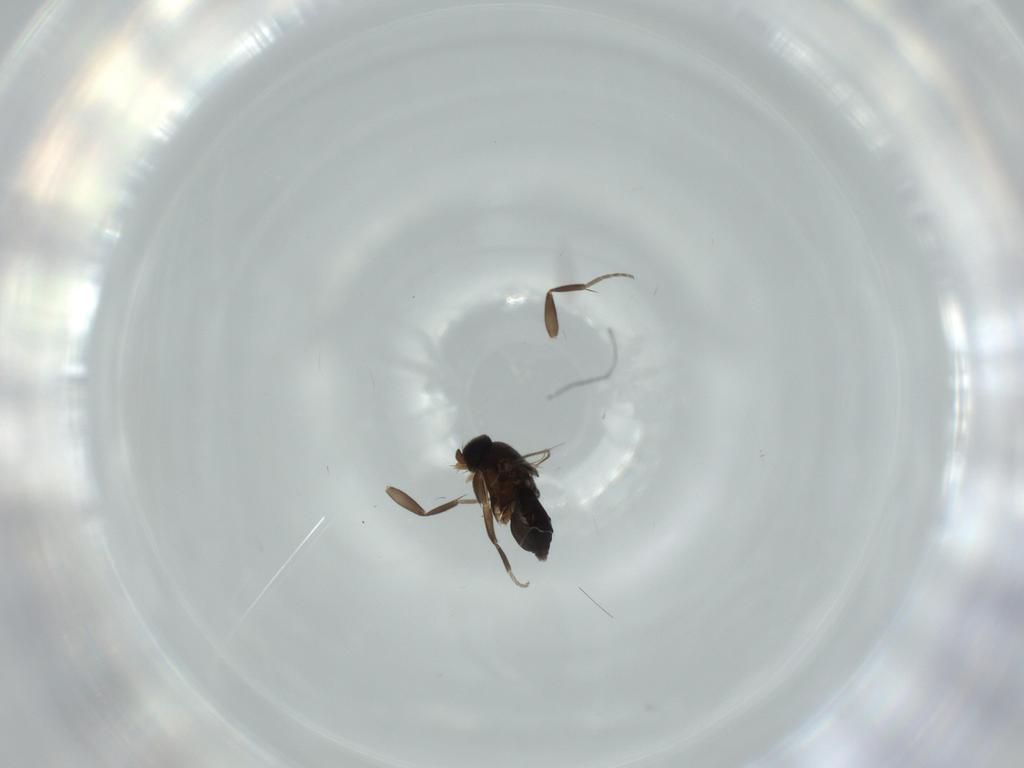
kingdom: Animalia
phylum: Arthropoda
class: Insecta
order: Diptera
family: Phoridae
